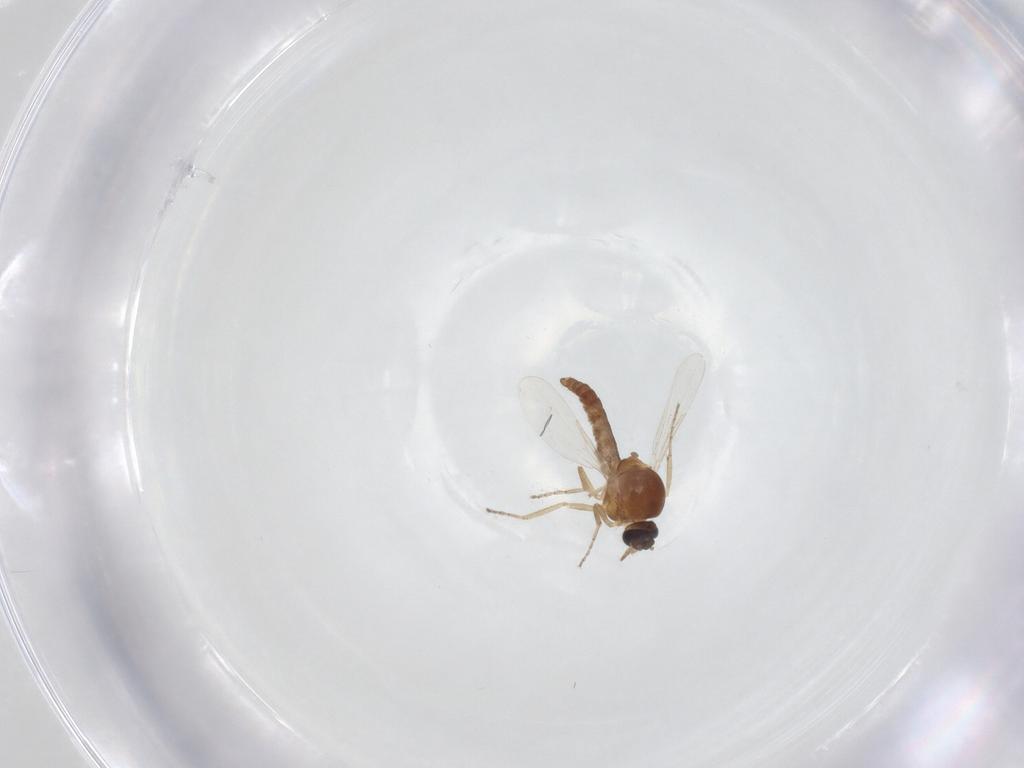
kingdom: Animalia
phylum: Arthropoda
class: Insecta
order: Diptera
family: Ceratopogonidae
